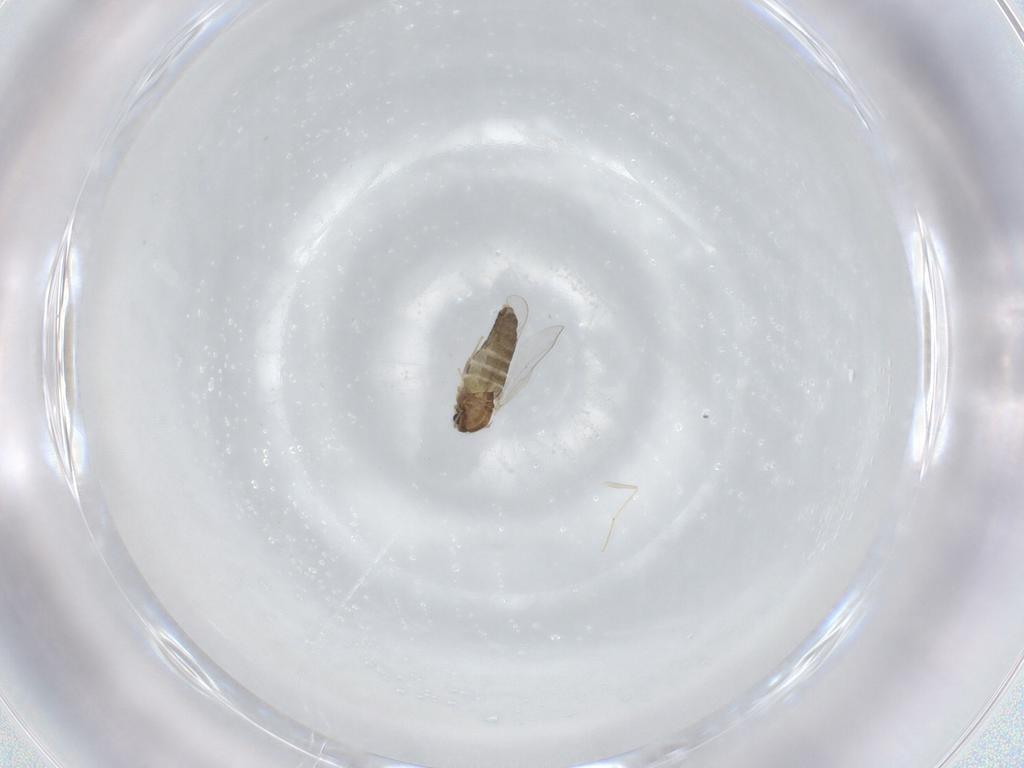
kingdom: Animalia
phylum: Arthropoda
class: Insecta
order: Diptera
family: Chironomidae
